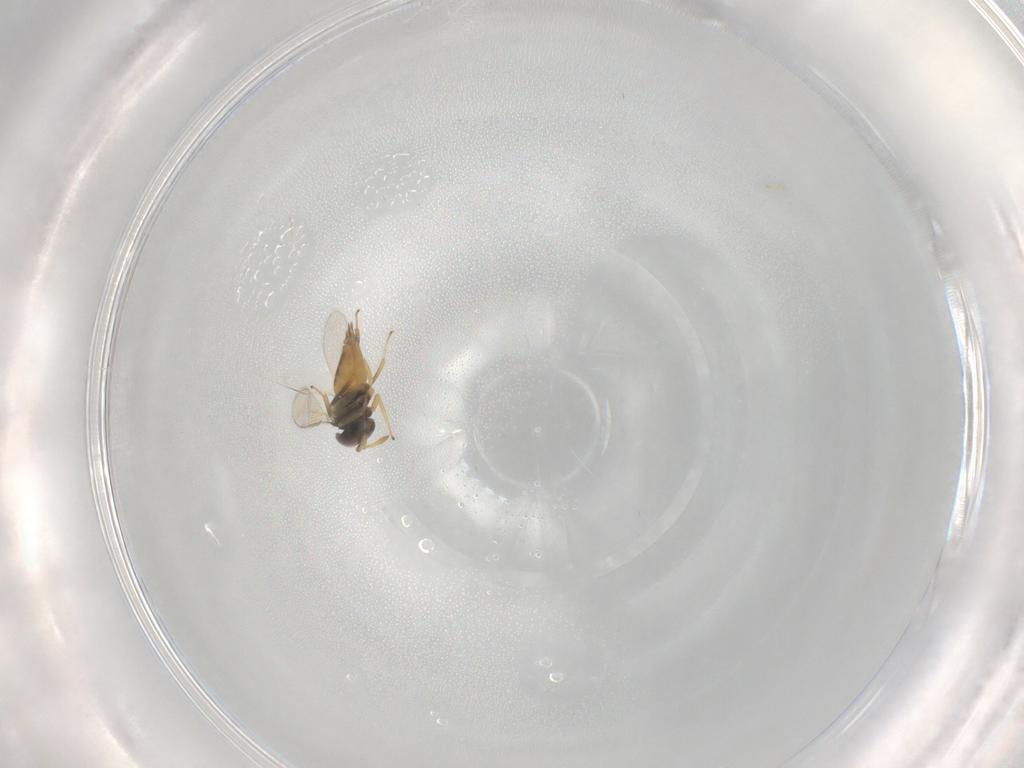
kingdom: Animalia
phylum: Arthropoda
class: Insecta
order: Hymenoptera
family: Aphelinidae
